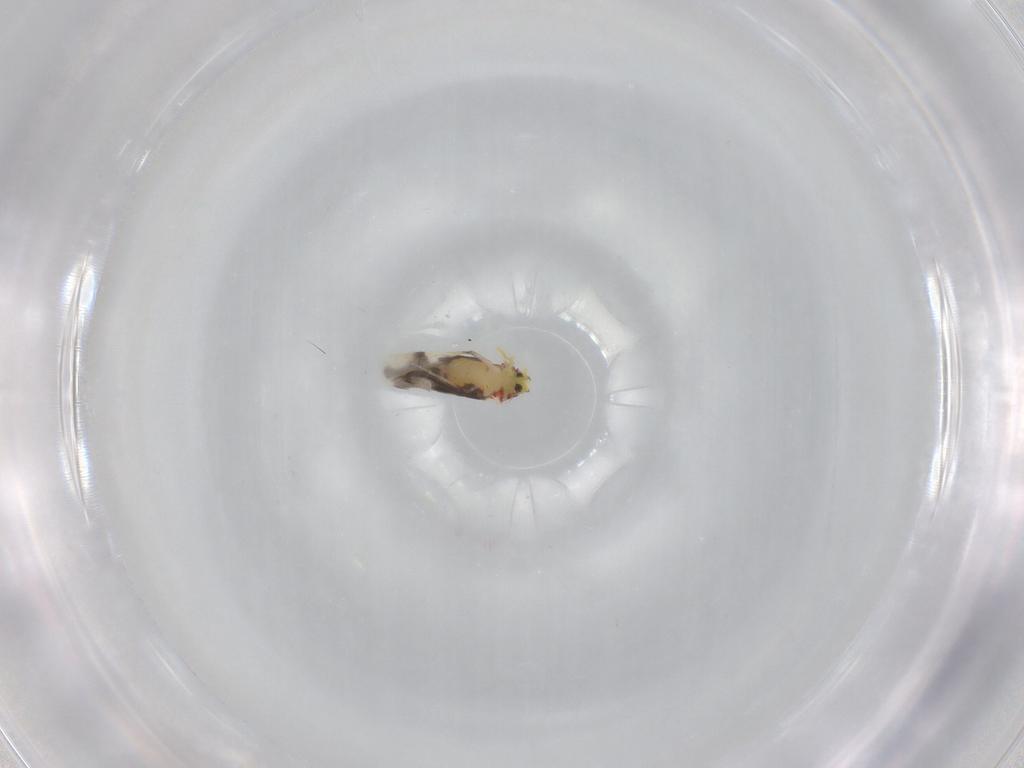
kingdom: Animalia
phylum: Arthropoda
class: Insecta
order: Hemiptera
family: Aleyrodidae
